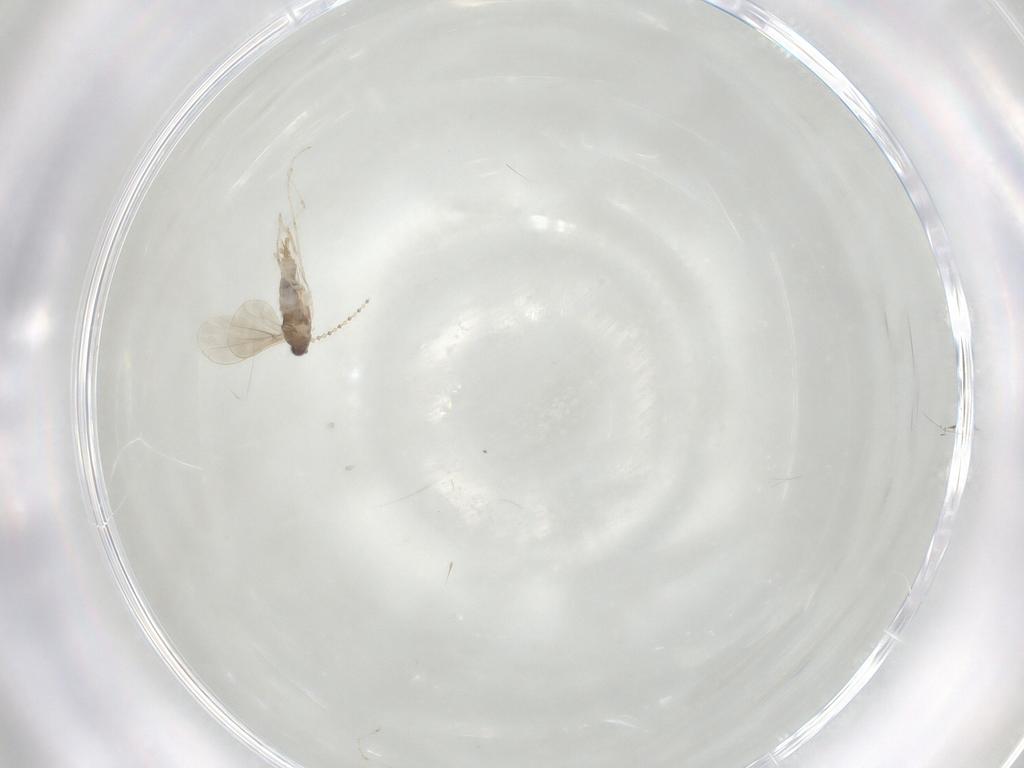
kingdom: Animalia
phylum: Arthropoda
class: Insecta
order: Diptera
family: Cecidomyiidae
